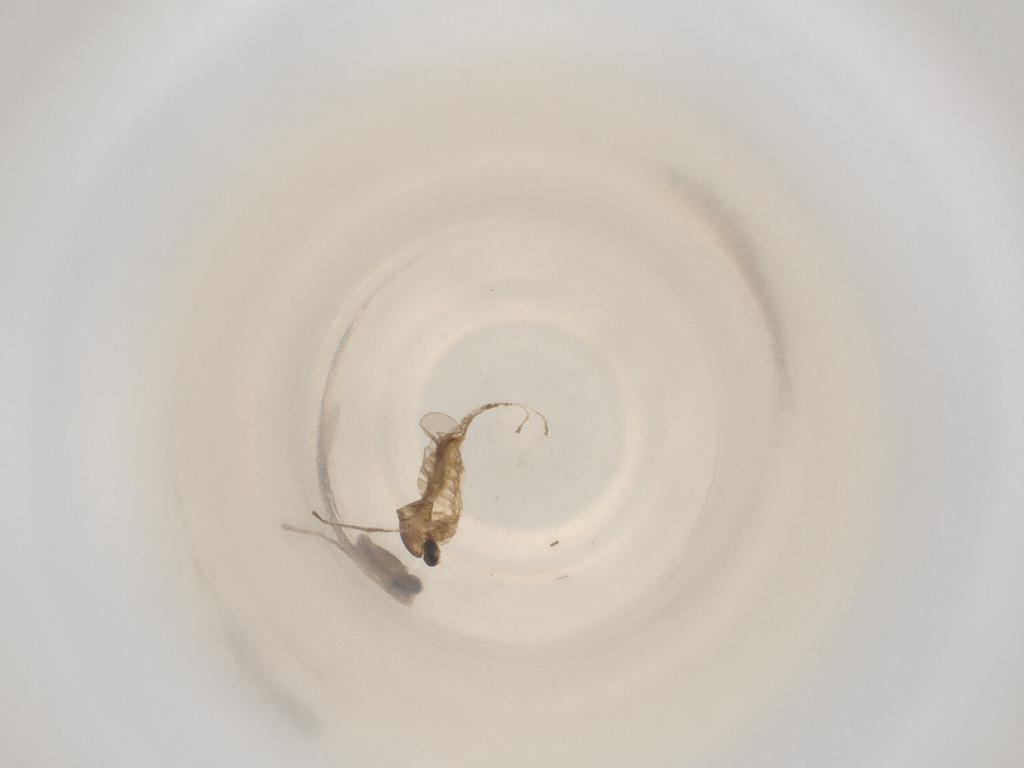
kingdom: Animalia
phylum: Arthropoda
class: Insecta
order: Diptera
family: Cecidomyiidae
